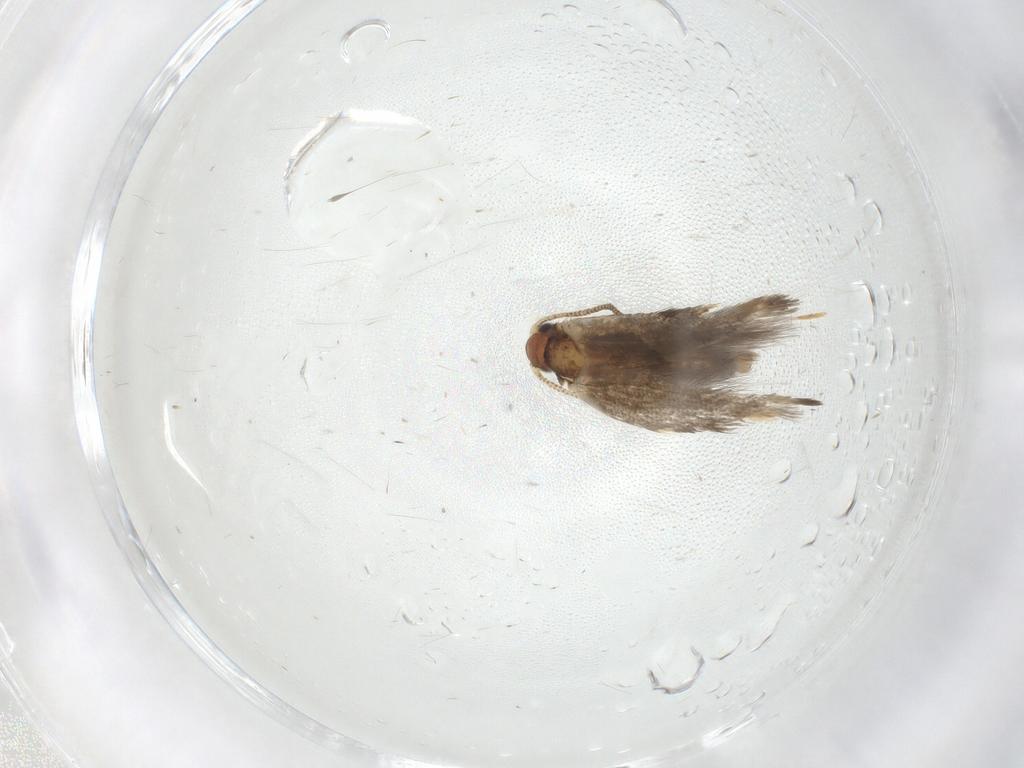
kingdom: Animalia
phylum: Arthropoda
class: Insecta
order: Lepidoptera
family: Tineidae
